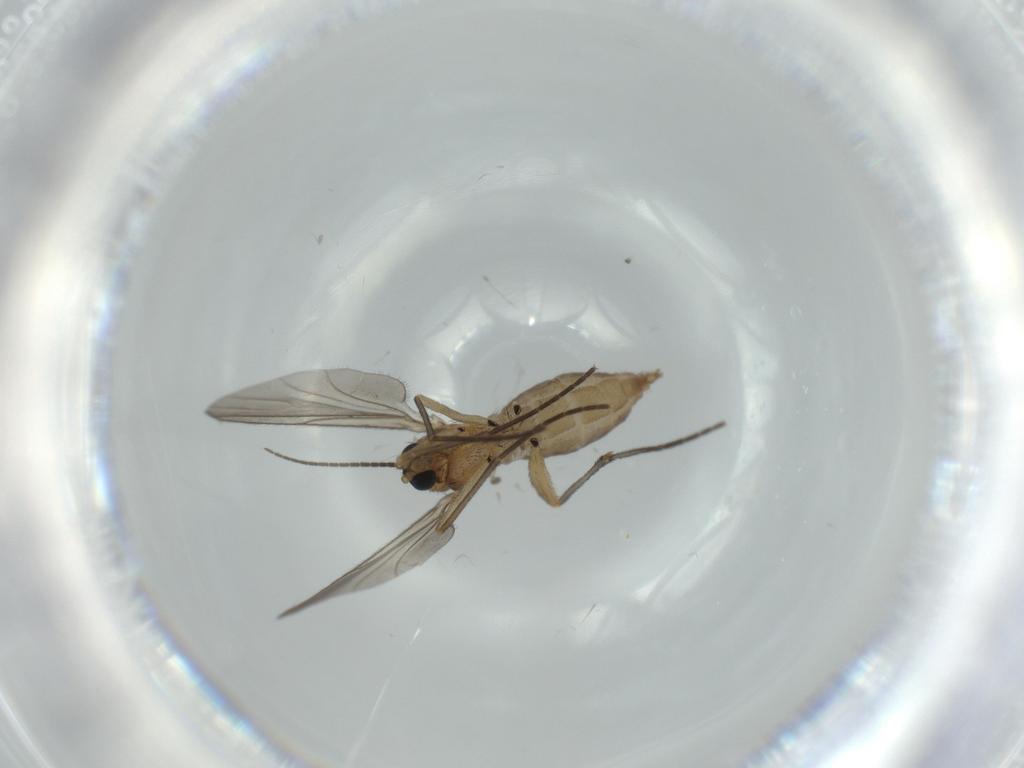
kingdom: Animalia
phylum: Arthropoda
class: Insecta
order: Diptera
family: Sciaridae
